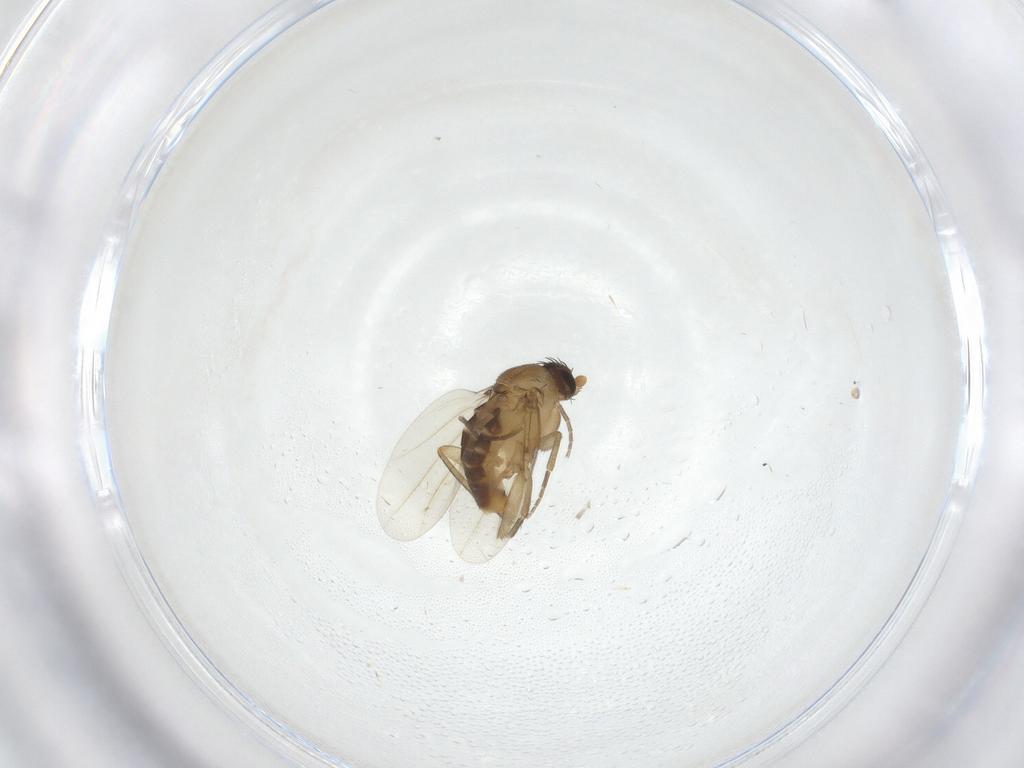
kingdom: Animalia
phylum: Arthropoda
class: Insecta
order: Diptera
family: Phoridae
